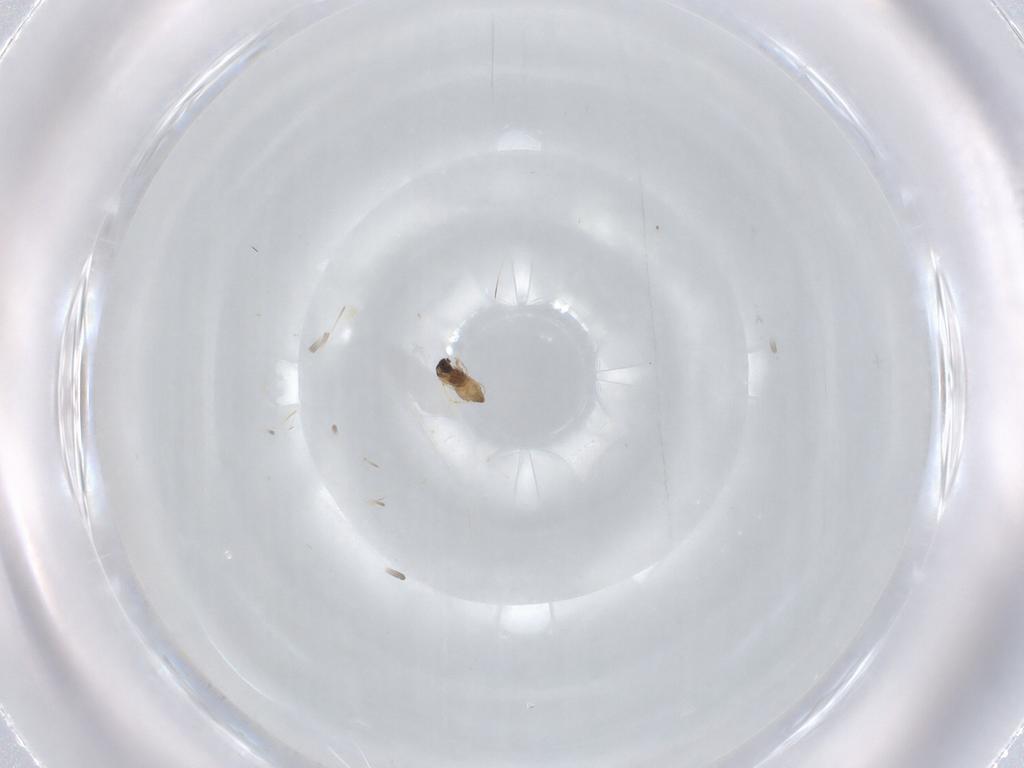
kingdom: Animalia
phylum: Arthropoda
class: Insecta
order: Diptera
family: Cecidomyiidae
